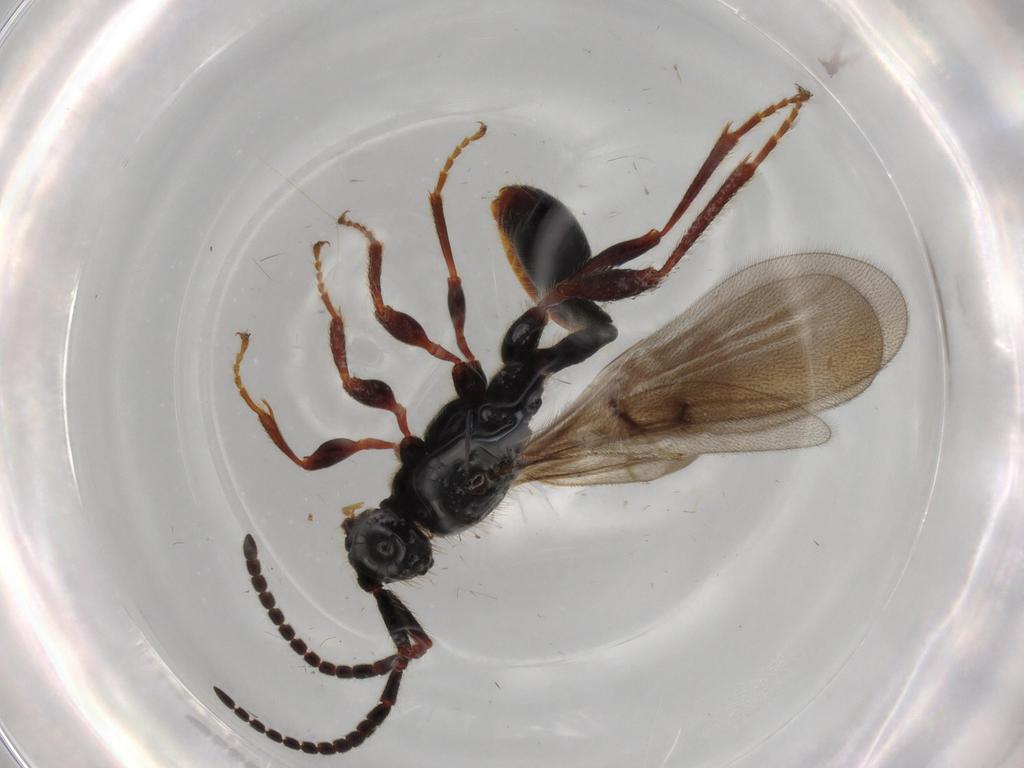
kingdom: Animalia
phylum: Arthropoda
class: Insecta
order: Hymenoptera
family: Diapriidae
